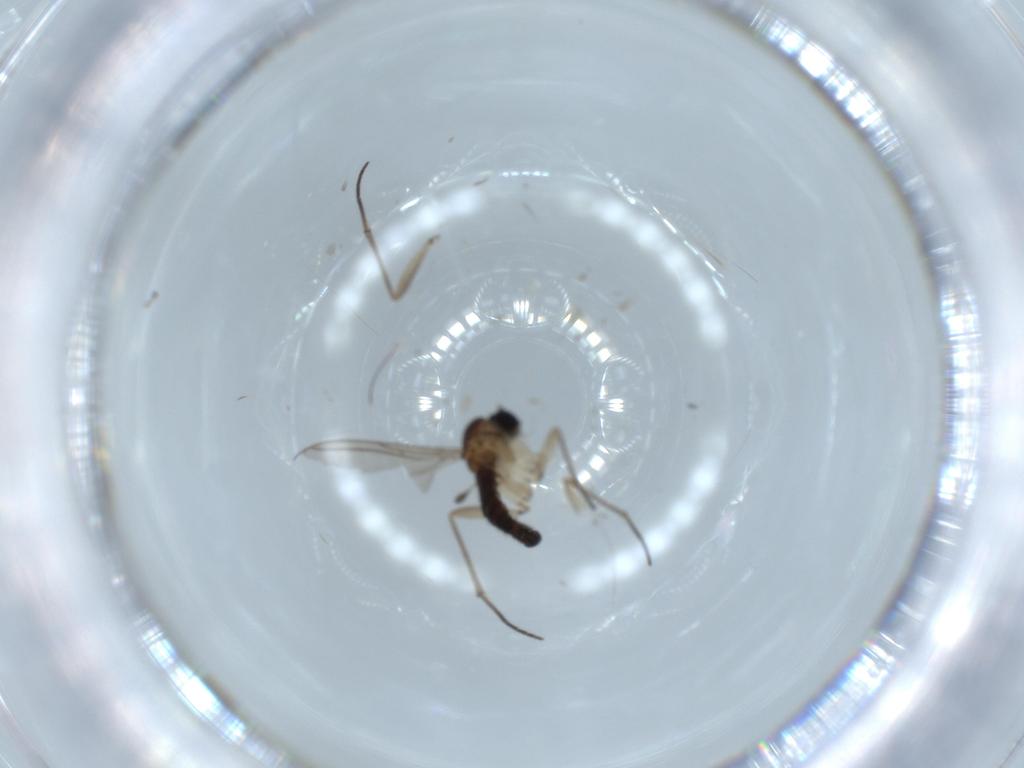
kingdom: Animalia
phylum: Arthropoda
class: Insecta
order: Diptera
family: Sciaridae
